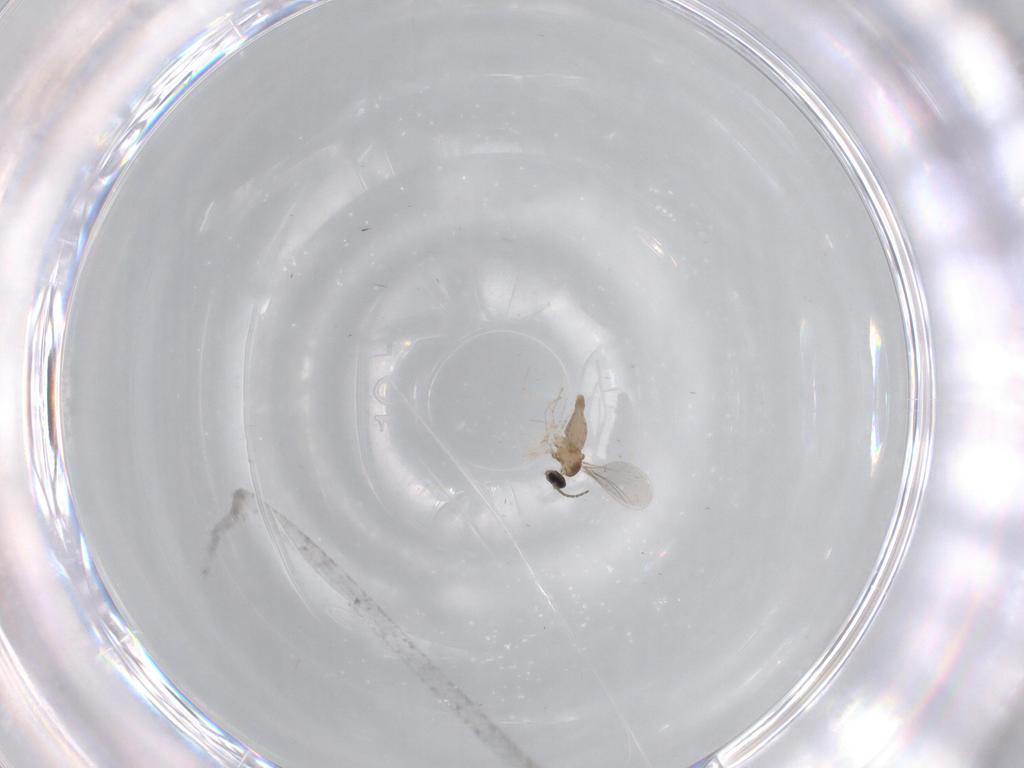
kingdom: Animalia
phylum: Arthropoda
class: Insecta
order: Diptera
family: Cecidomyiidae
